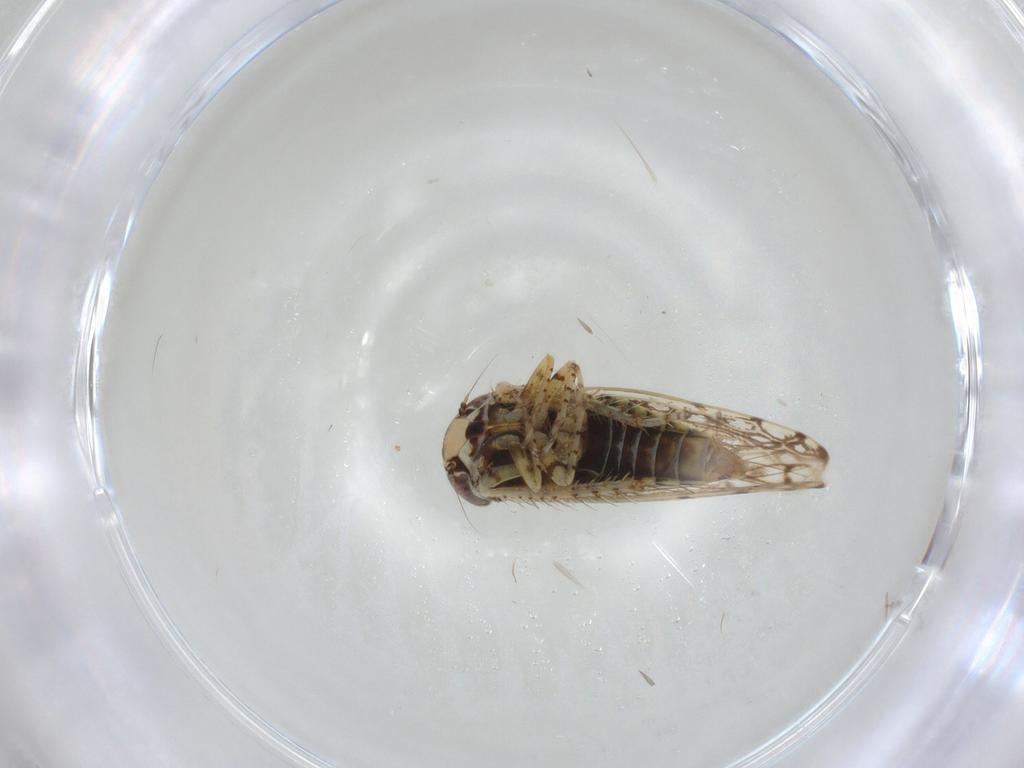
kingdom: Animalia
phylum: Arthropoda
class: Insecta
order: Hemiptera
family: Cicadellidae
